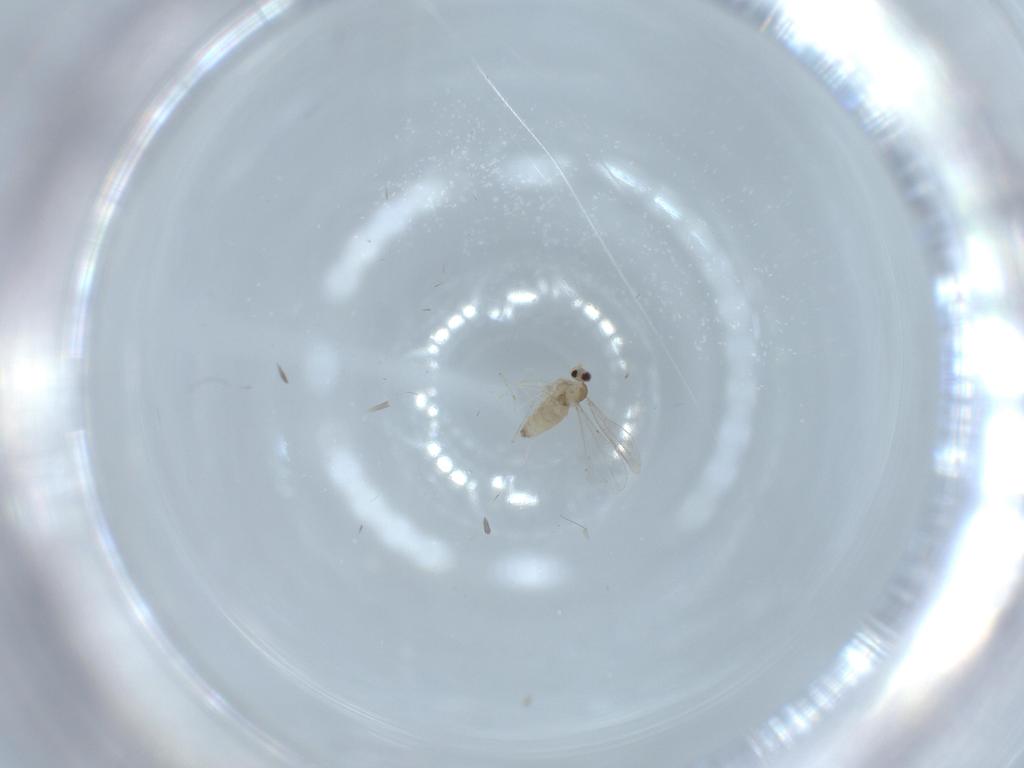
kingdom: Animalia
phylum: Arthropoda
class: Insecta
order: Diptera
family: Cecidomyiidae
